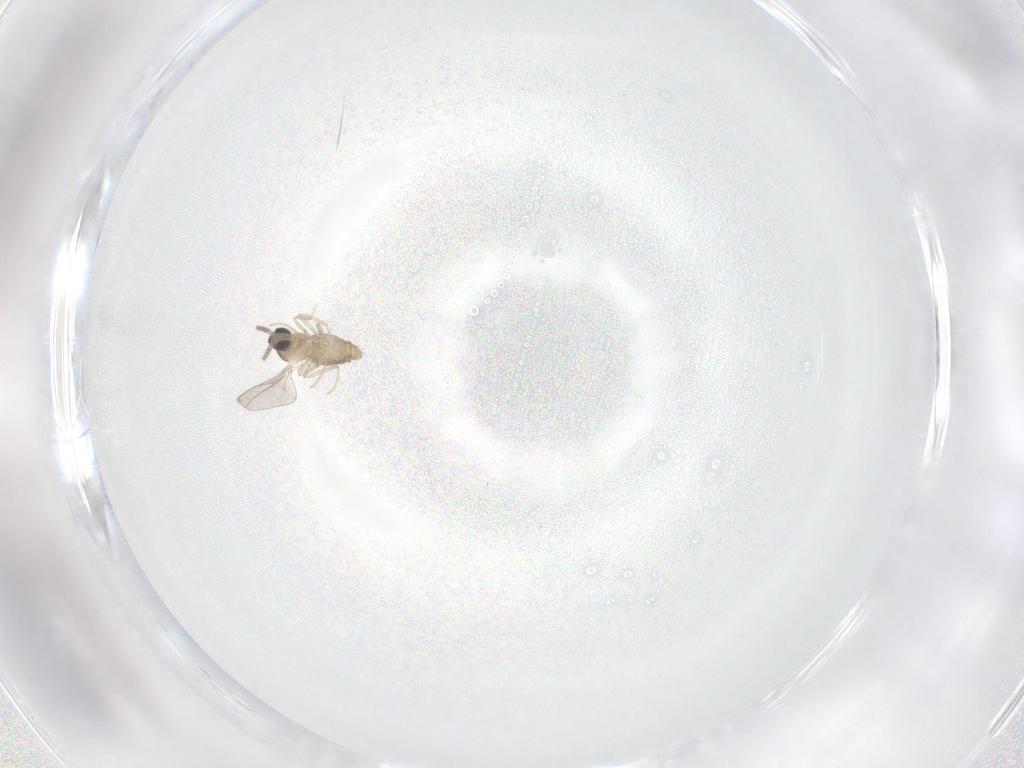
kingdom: Animalia
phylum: Arthropoda
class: Insecta
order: Diptera
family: Cecidomyiidae
